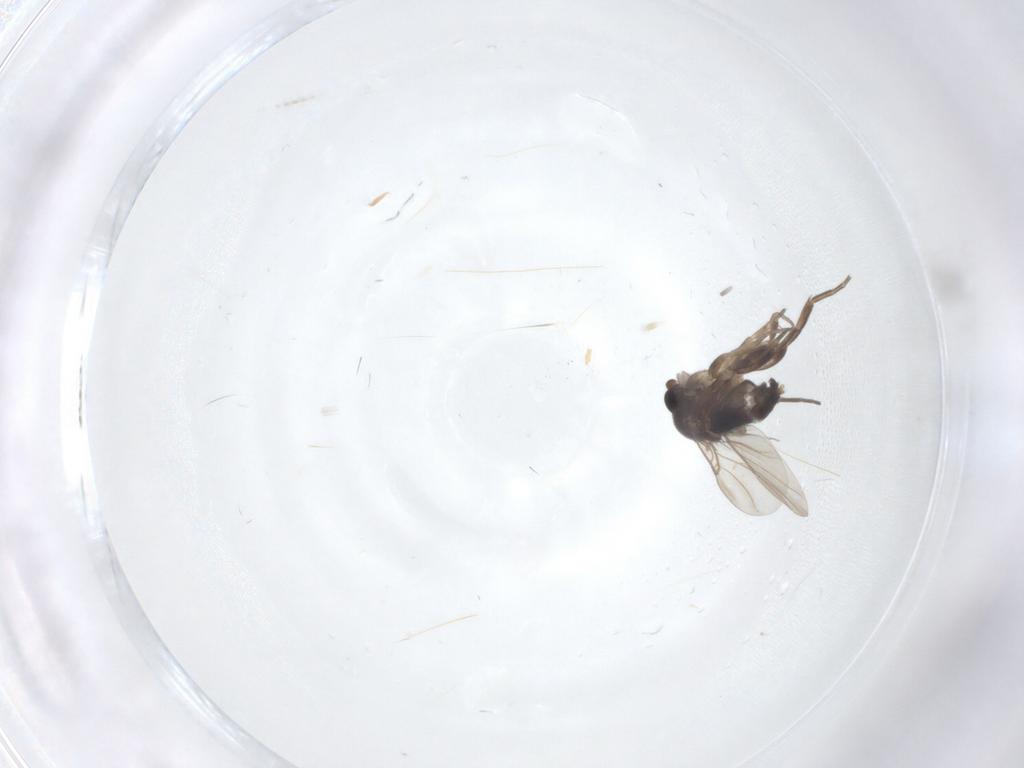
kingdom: Animalia
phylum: Arthropoda
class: Insecta
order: Diptera
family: Phoridae
